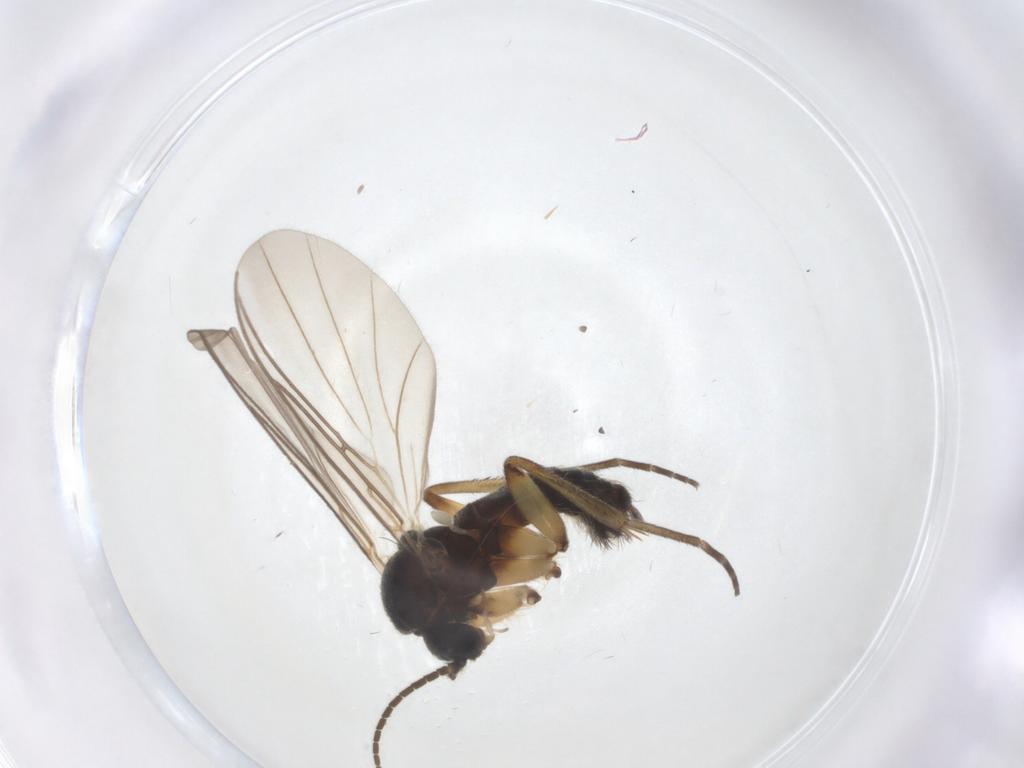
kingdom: Animalia
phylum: Arthropoda
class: Insecta
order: Diptera
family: Mycetophilidae
